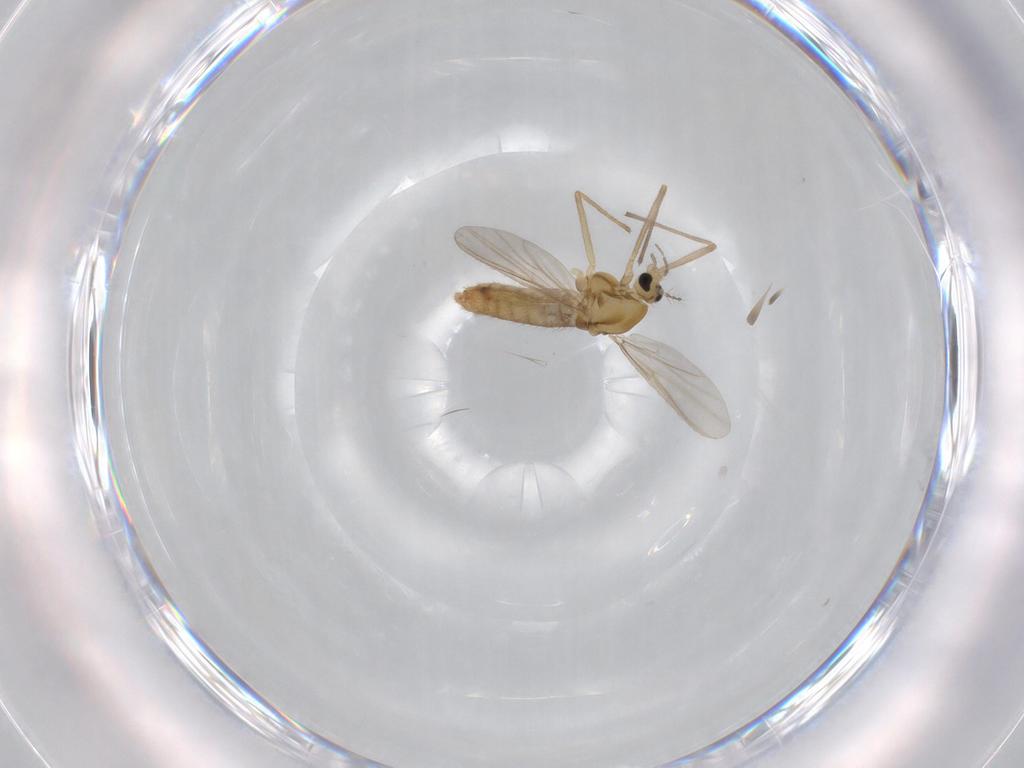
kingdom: Animalia
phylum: Arthropoda
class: Insecta
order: Diptera
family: Chironomidae
